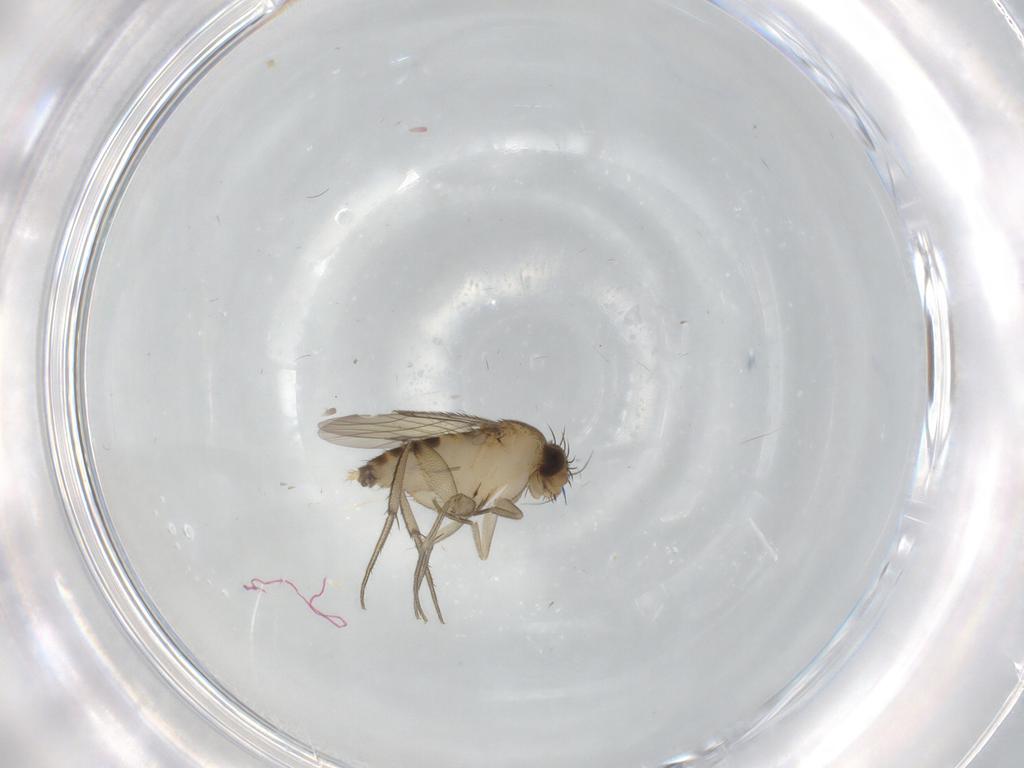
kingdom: Animalia
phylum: Arthropoda
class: Insecta
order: Diptera
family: Phoridae
